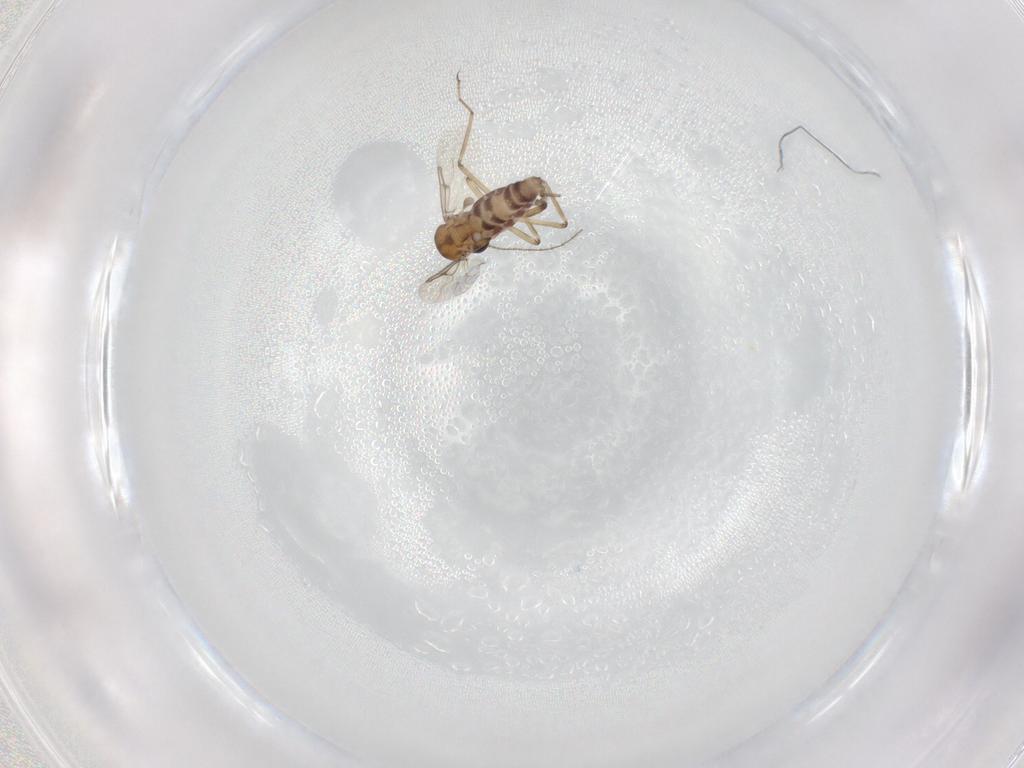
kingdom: Animalia
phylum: Arthropoda
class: Insecta
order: Diptera
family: Ceratopogonidae
